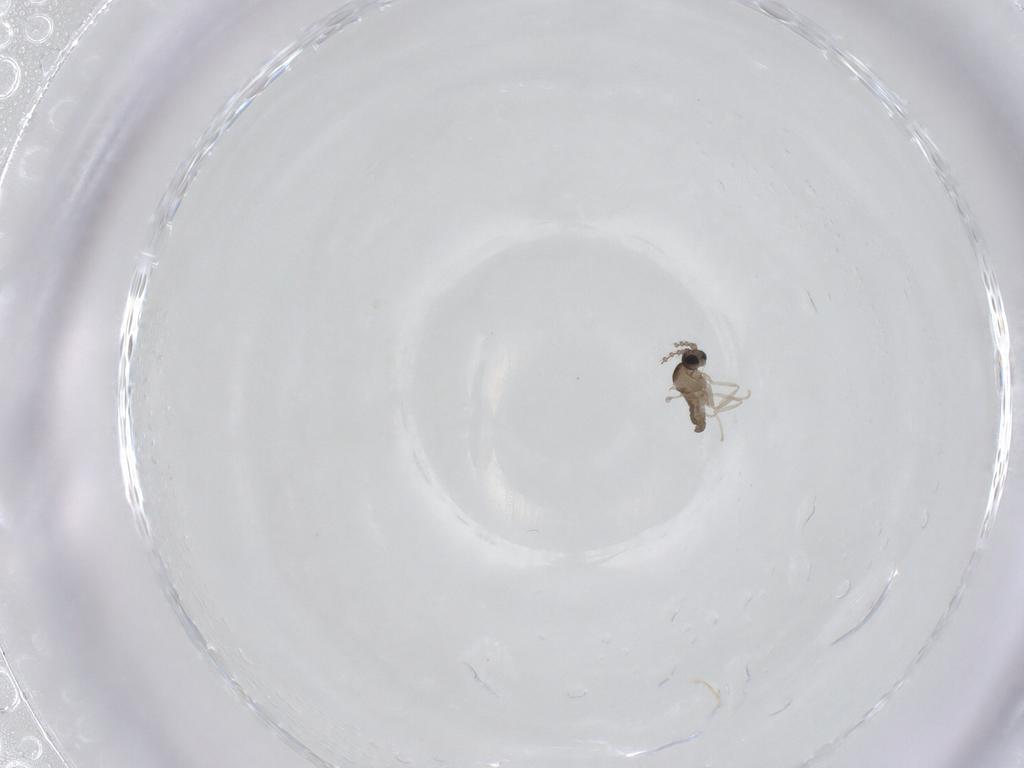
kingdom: Animalia
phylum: Arthropoda
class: Insecta
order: Diptera
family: Cecidomyiidae
